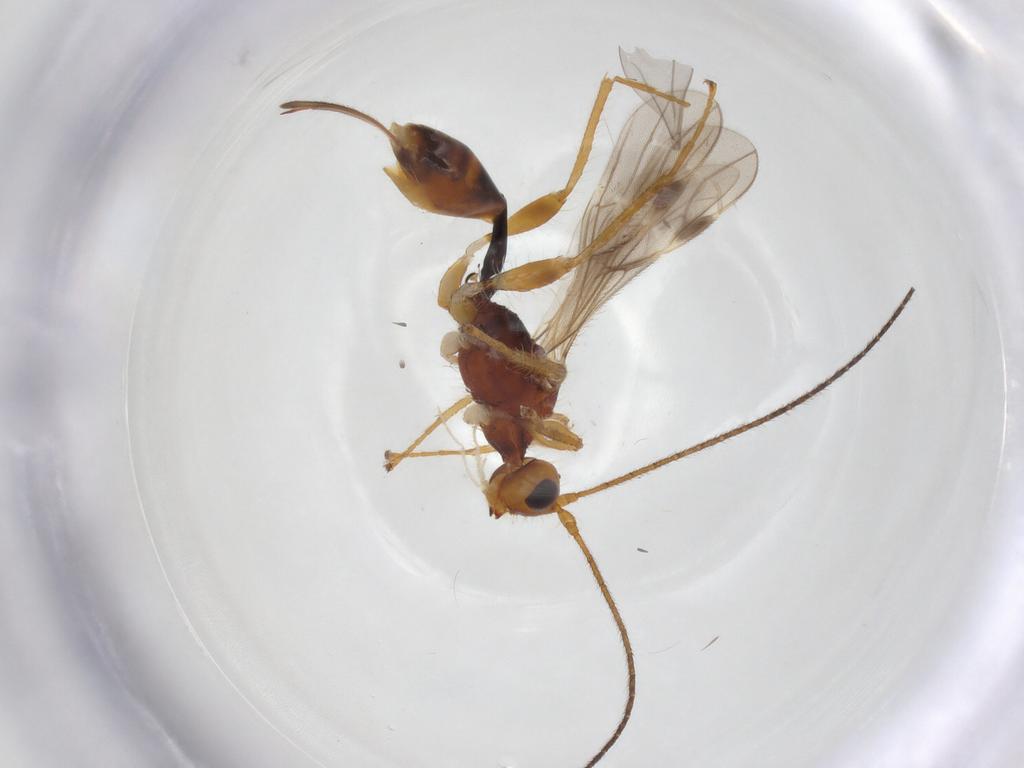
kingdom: Animalia
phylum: Arthropoda
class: Insecta
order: Hymenoptera
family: Braconidae
